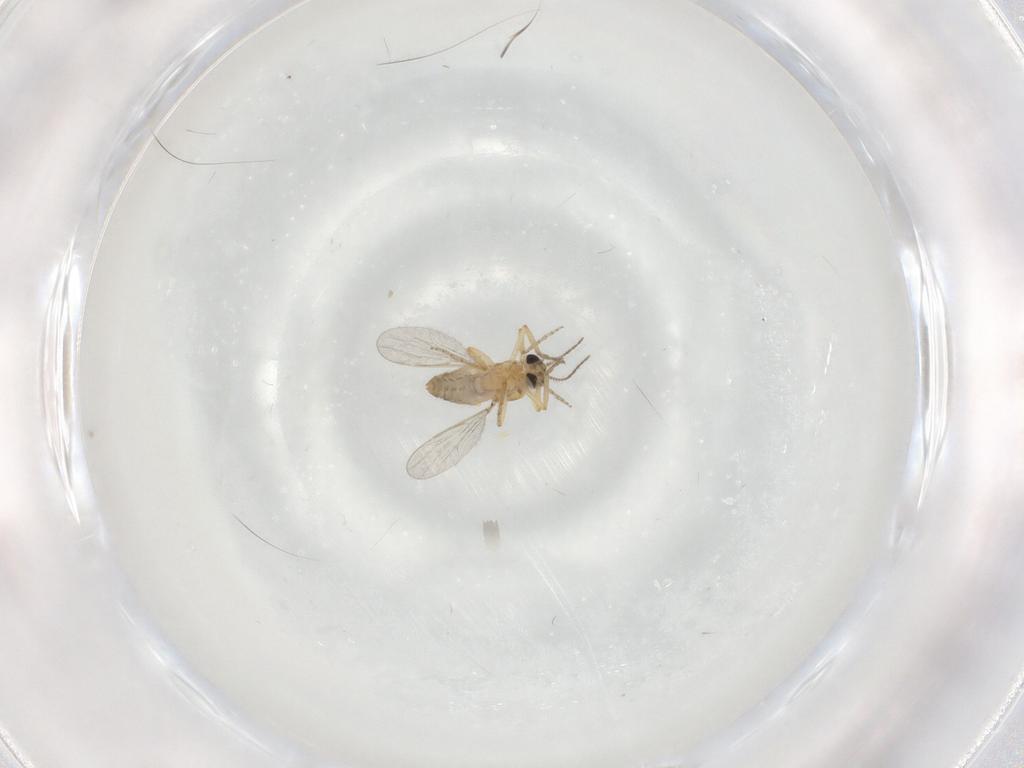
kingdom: Animalia
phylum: Arthropoda
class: Insecta
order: Diptera
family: Ceratopogonidae
